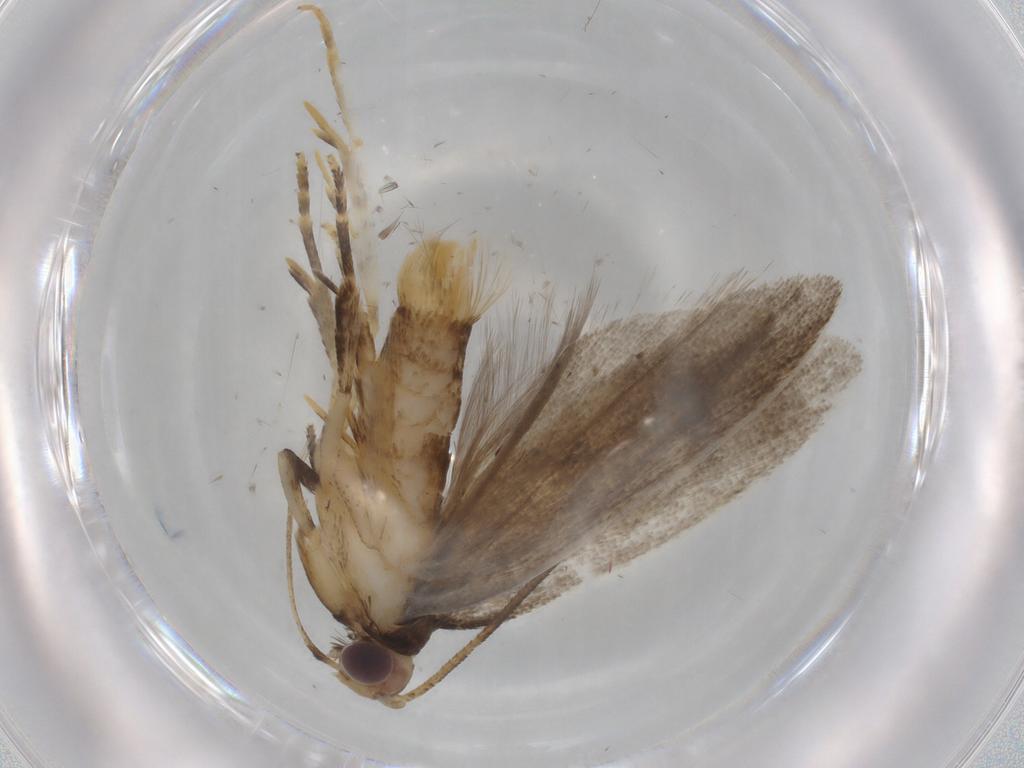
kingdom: Animalia
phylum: Arthropoda
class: Insecta
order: Lepidoptera
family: Gelechiidae
